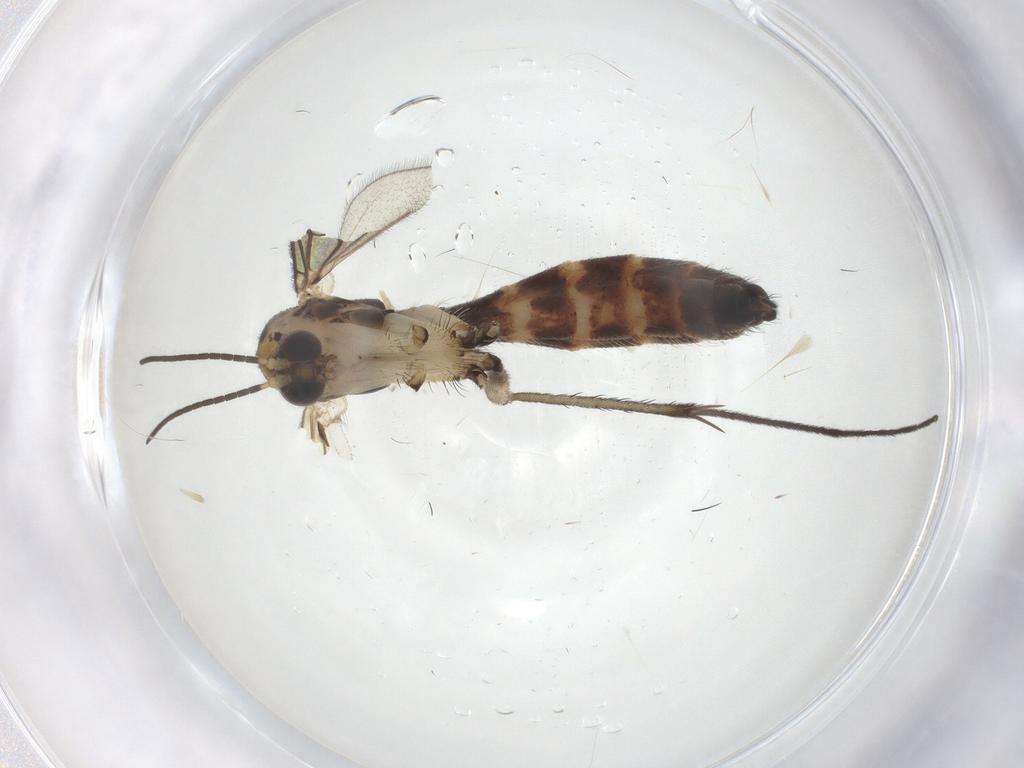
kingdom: Animalia
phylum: Arthropoda
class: Insecta
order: Diptera
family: Mycetophilidae
